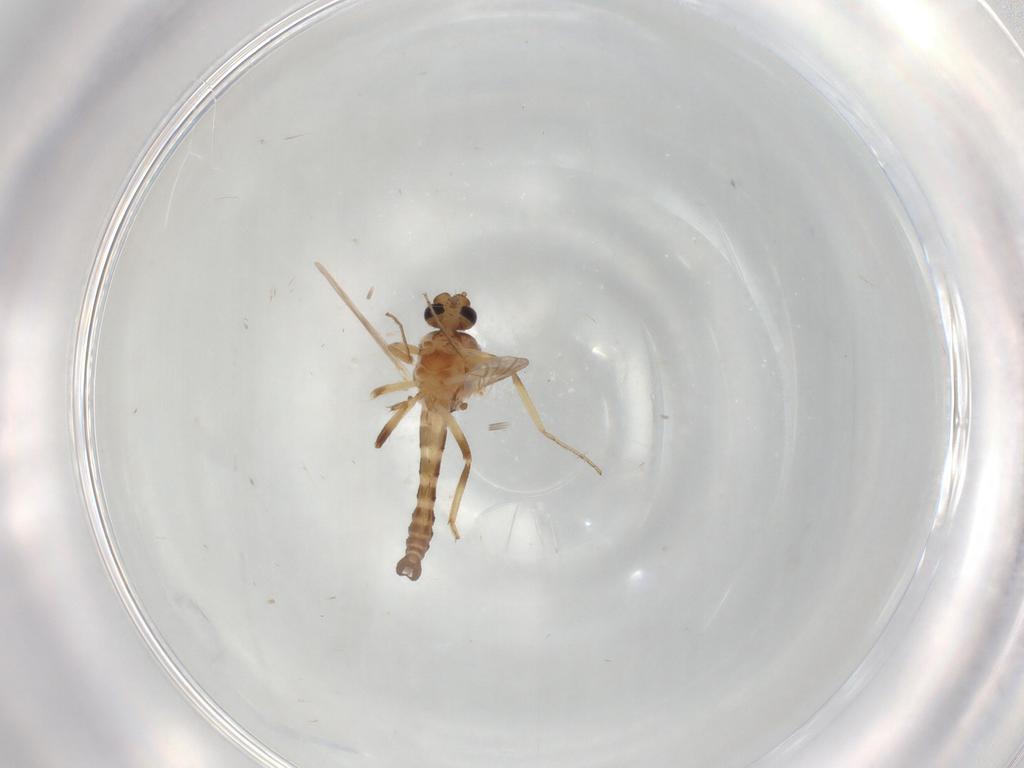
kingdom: Animalia
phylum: Arthropoda
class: Insecta
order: Diptera
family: Ceratopogonidae
